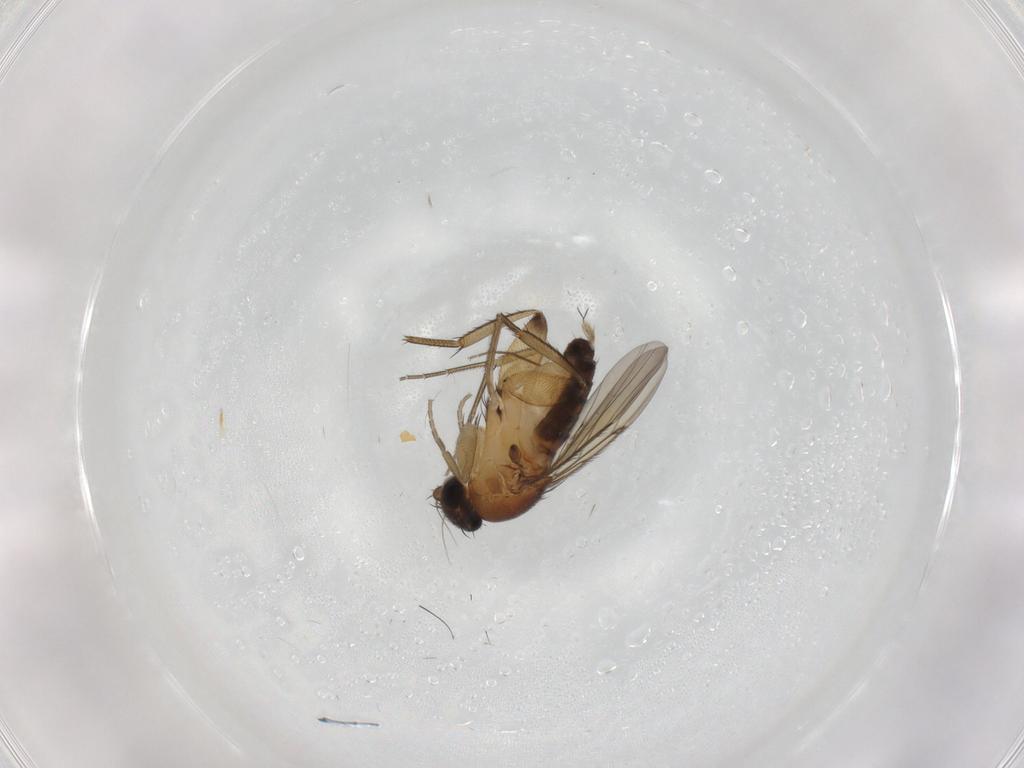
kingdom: Animalia
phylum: Arthropoda
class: Insecta
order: Diptera
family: Phoridae
